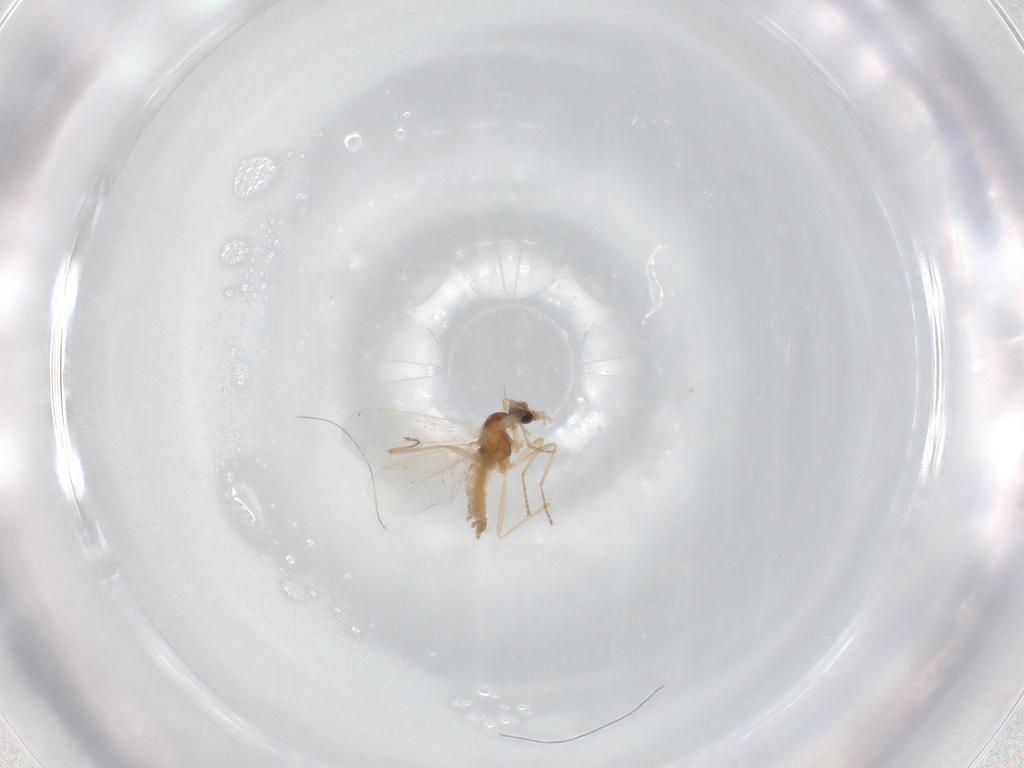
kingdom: Animalia
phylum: Arthropoda
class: Insecta
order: Diptera
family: Cecidomyiidae
